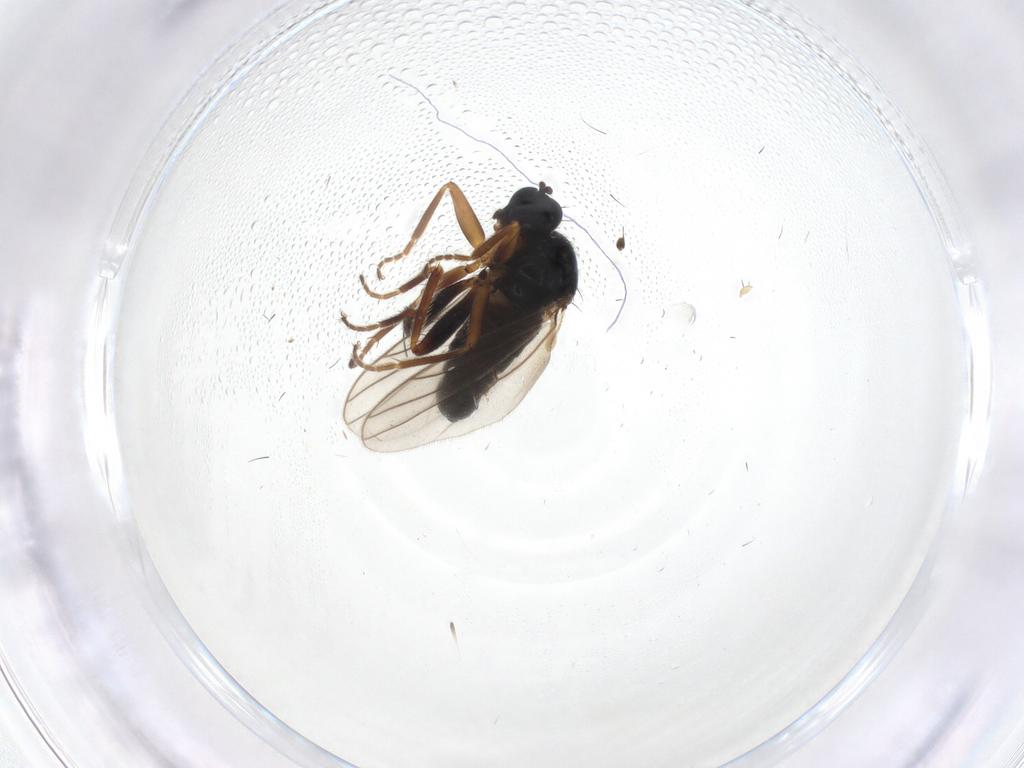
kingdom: Animalia
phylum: Arthropoda
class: Insecta
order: Diptera
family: Hybotidae
